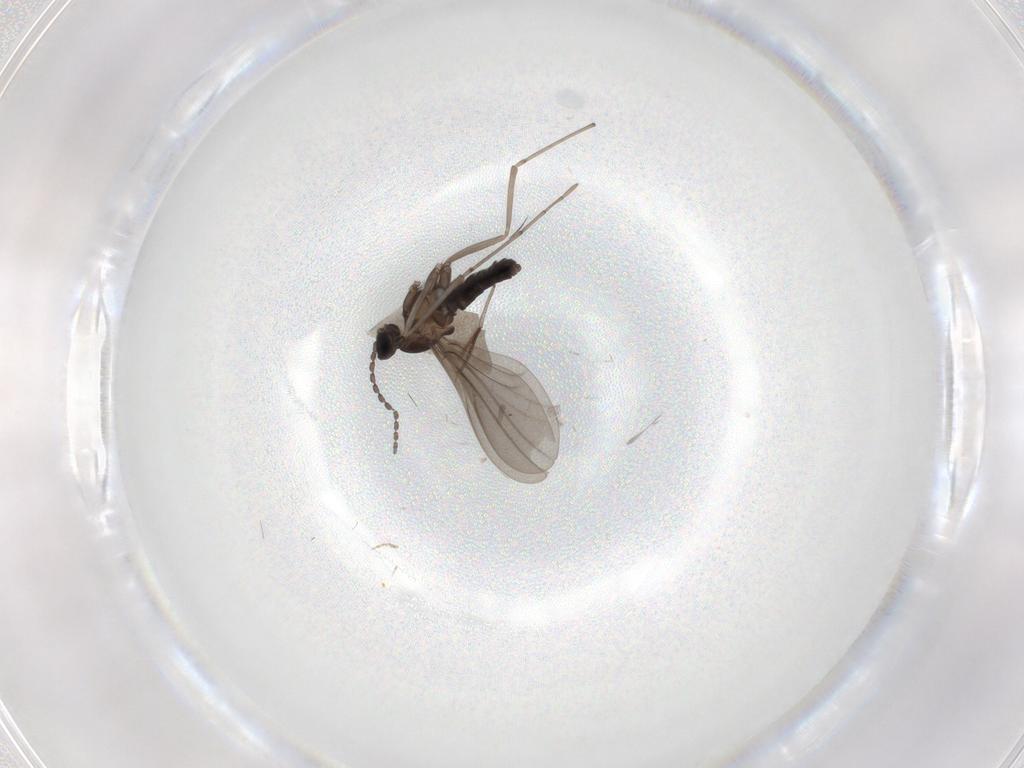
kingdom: Animalia
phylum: Arthropoda
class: Insecta
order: Diptera
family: Cecidomyiidae
